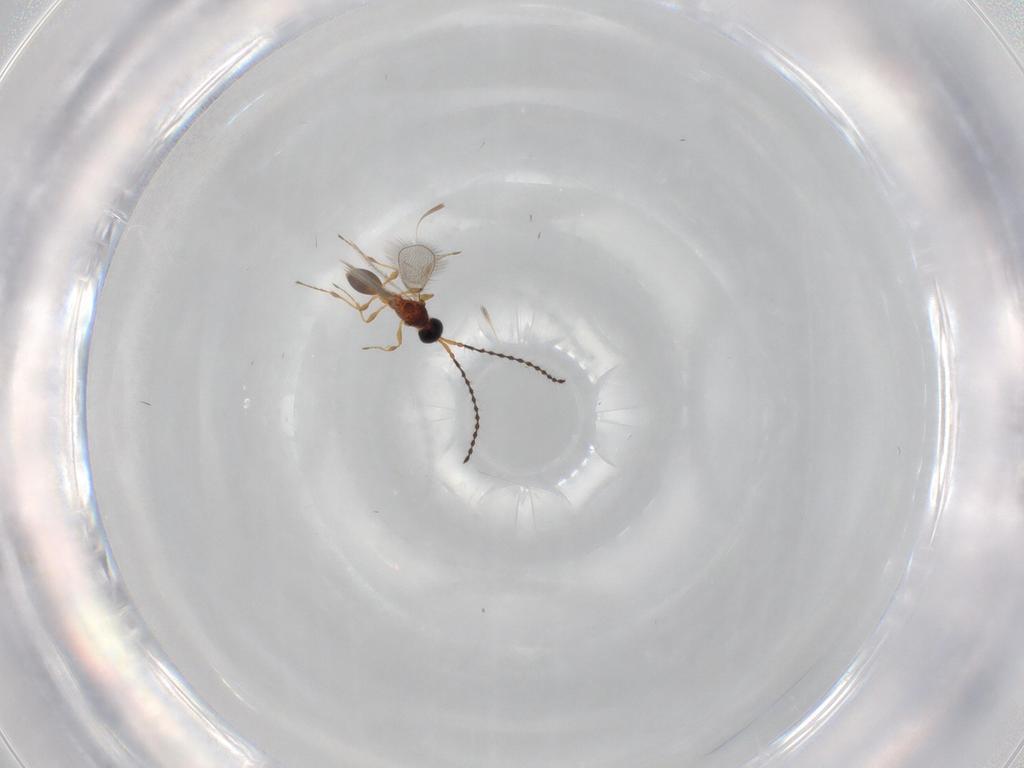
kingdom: Animalia
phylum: Arthropoda
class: Insecta
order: Hymenoptera
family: Diapriidae
